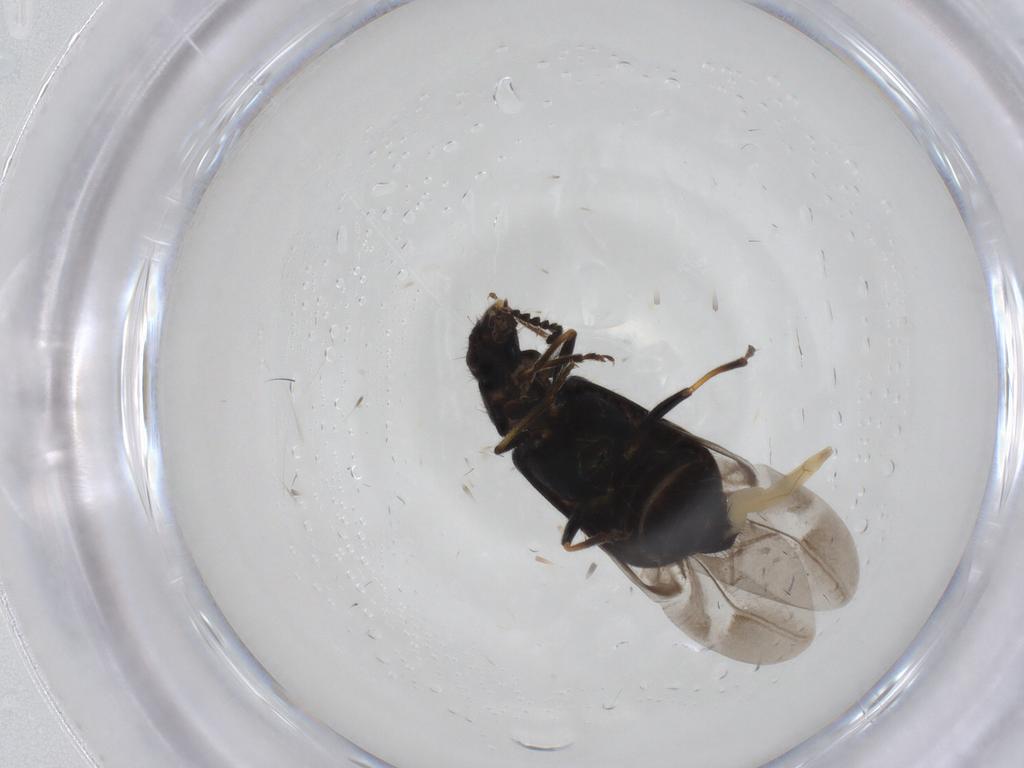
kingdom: Animalia
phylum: Arthropoda
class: Insecta
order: Coleoptera
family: Melyridae
